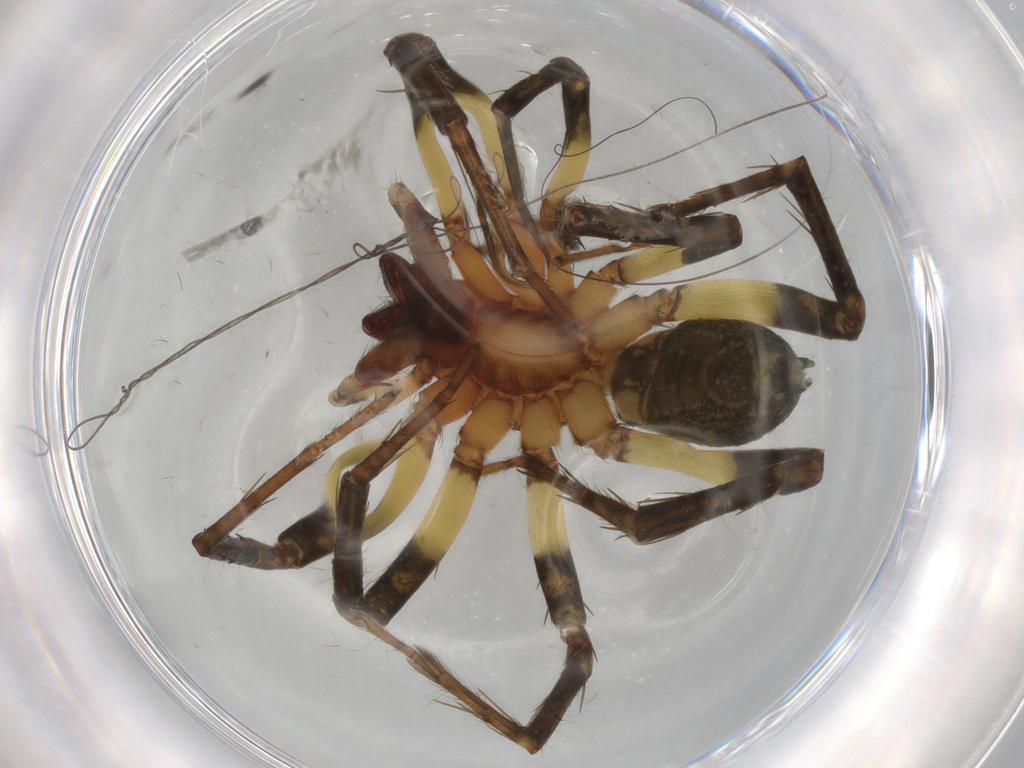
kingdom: Animalia
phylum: Arthropoda
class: Arachnida
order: Araneae
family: Anyphaenidae
